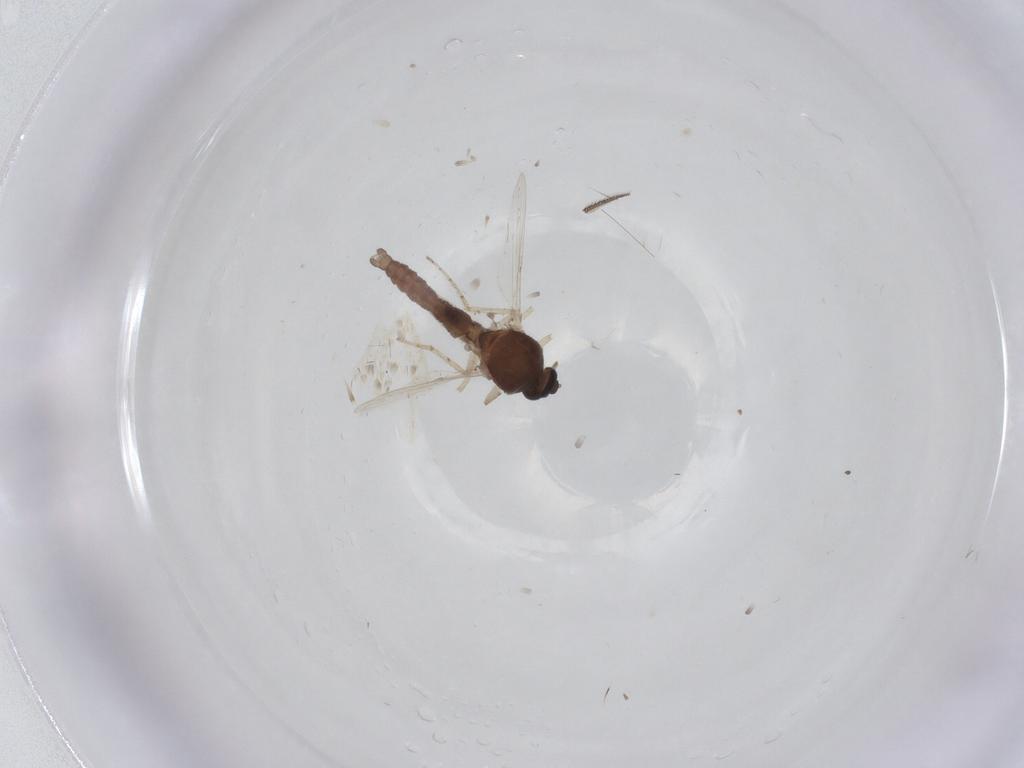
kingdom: Animalia
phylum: Arthropoda
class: Insecta
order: Diptera
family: Ceratopogonidae
